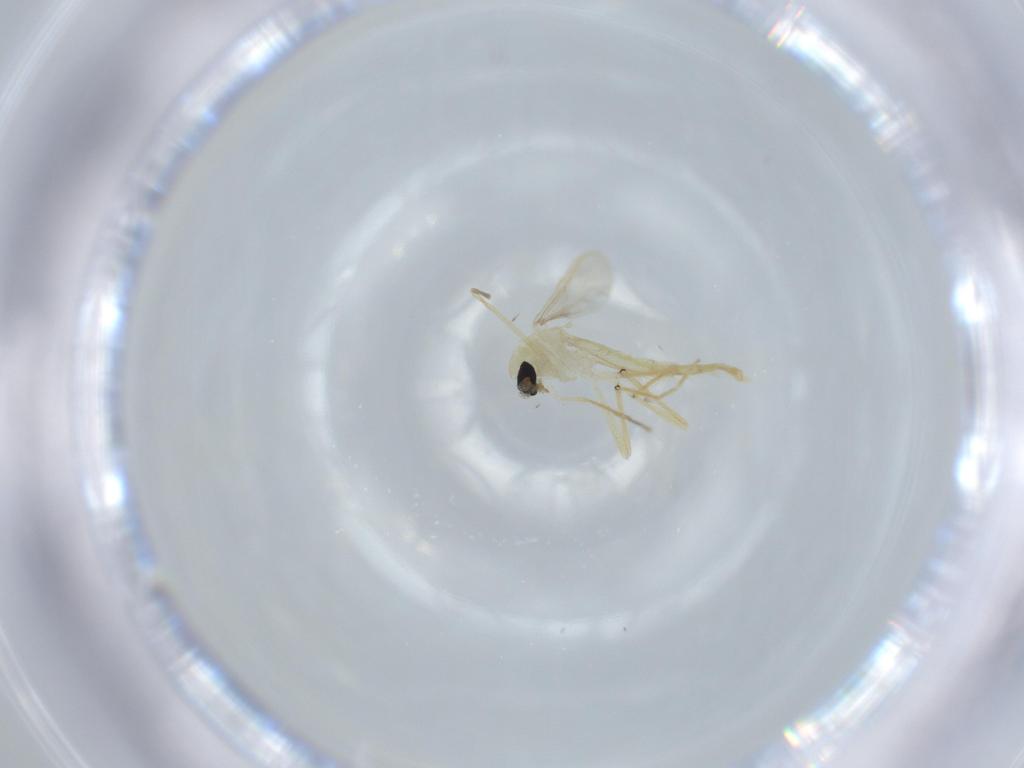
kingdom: Animalia
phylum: Arthropoda
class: Insecta
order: Diptera
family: Chironomidae
